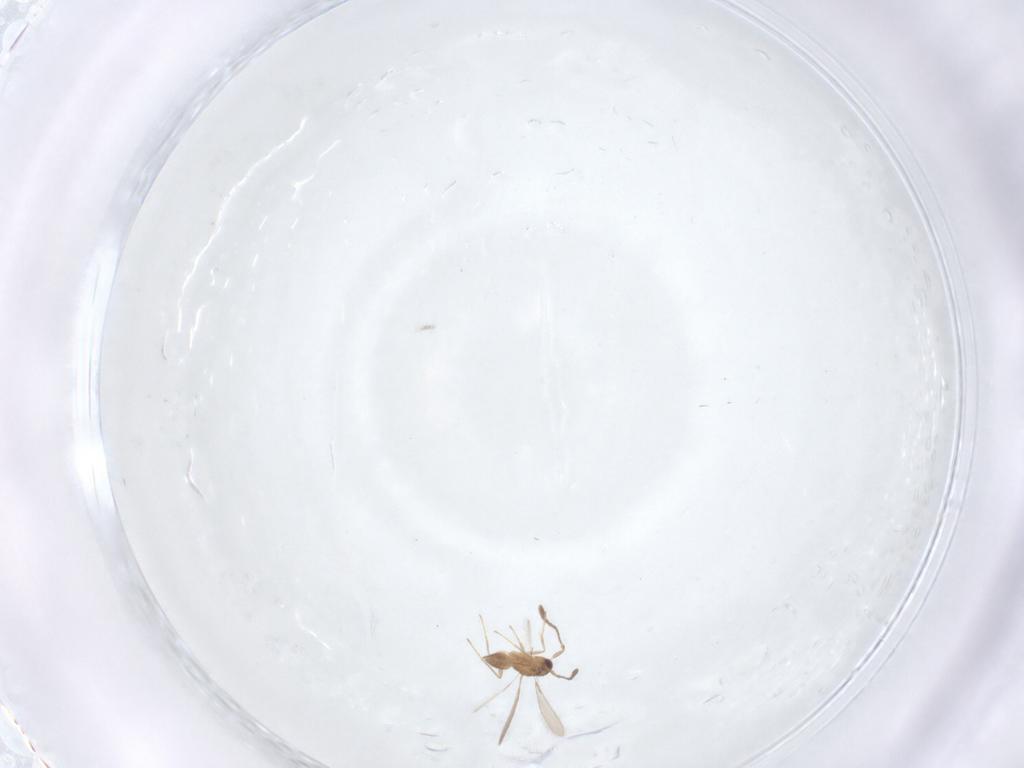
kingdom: Animalia
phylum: Arthropoda
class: Insecta
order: Hymenoptera
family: Mymaridae
